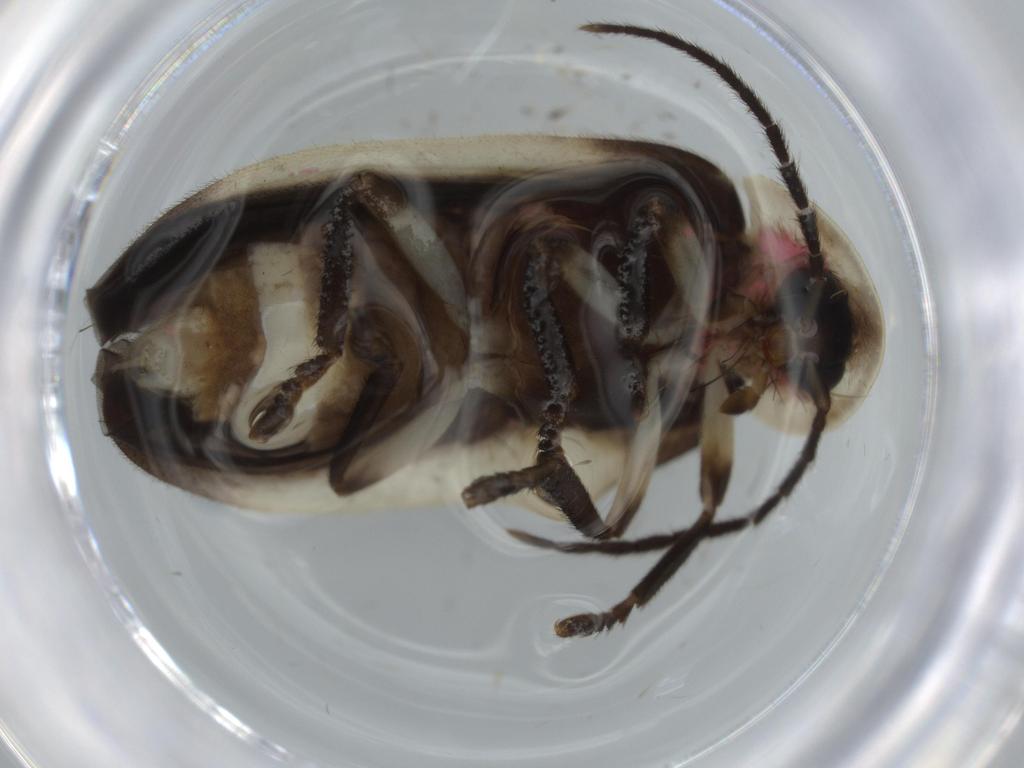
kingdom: Animalia
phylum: Arthropoda
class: Insecta
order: Coleoptera
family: Lampyridae
